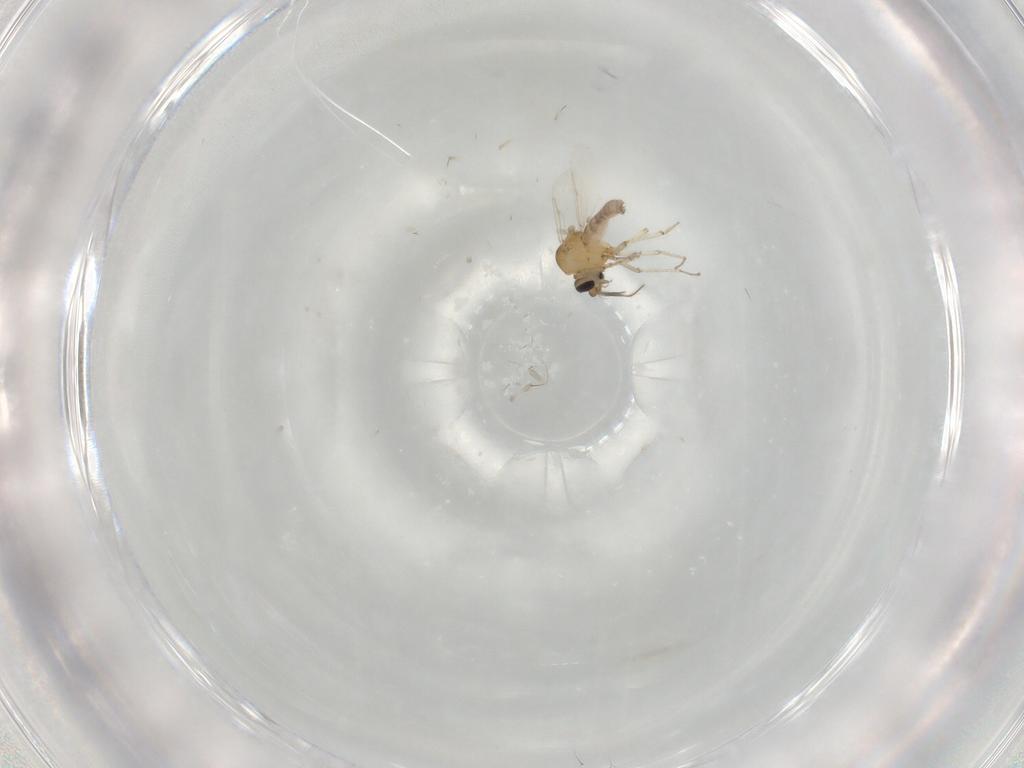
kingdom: Animalia
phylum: Arthropoda
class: Insecta
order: Diptera
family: Ceratopogonidae
